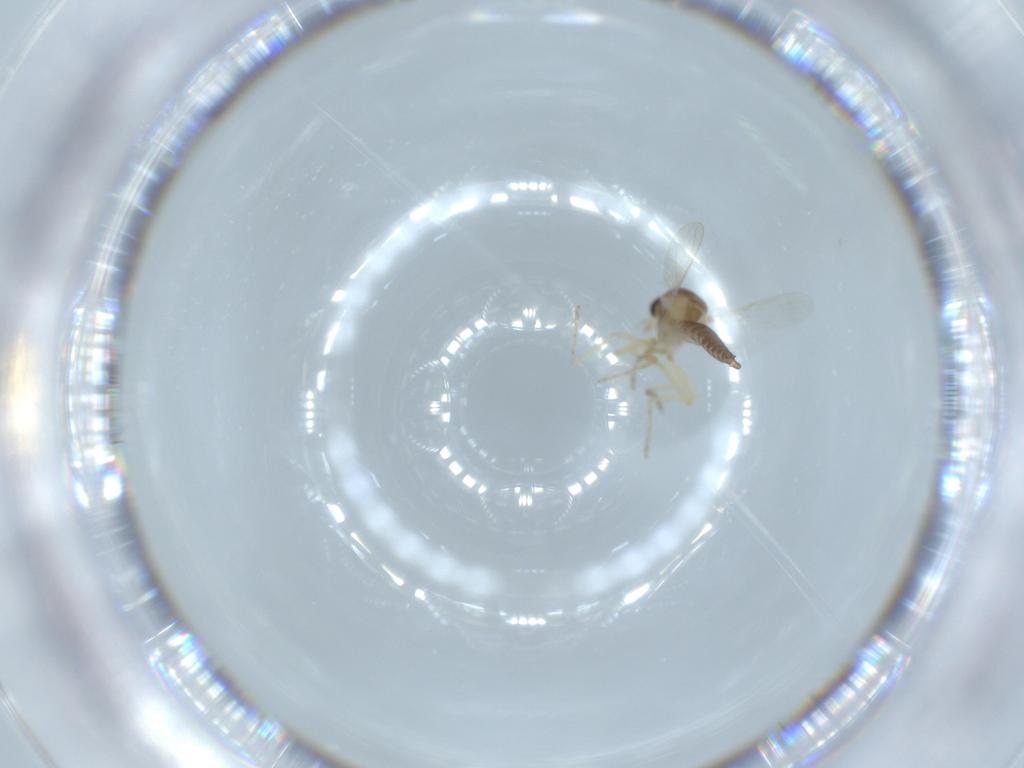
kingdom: Animalia
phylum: Arthropoda
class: Insecta
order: Diptera
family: Ceratopogonidae
